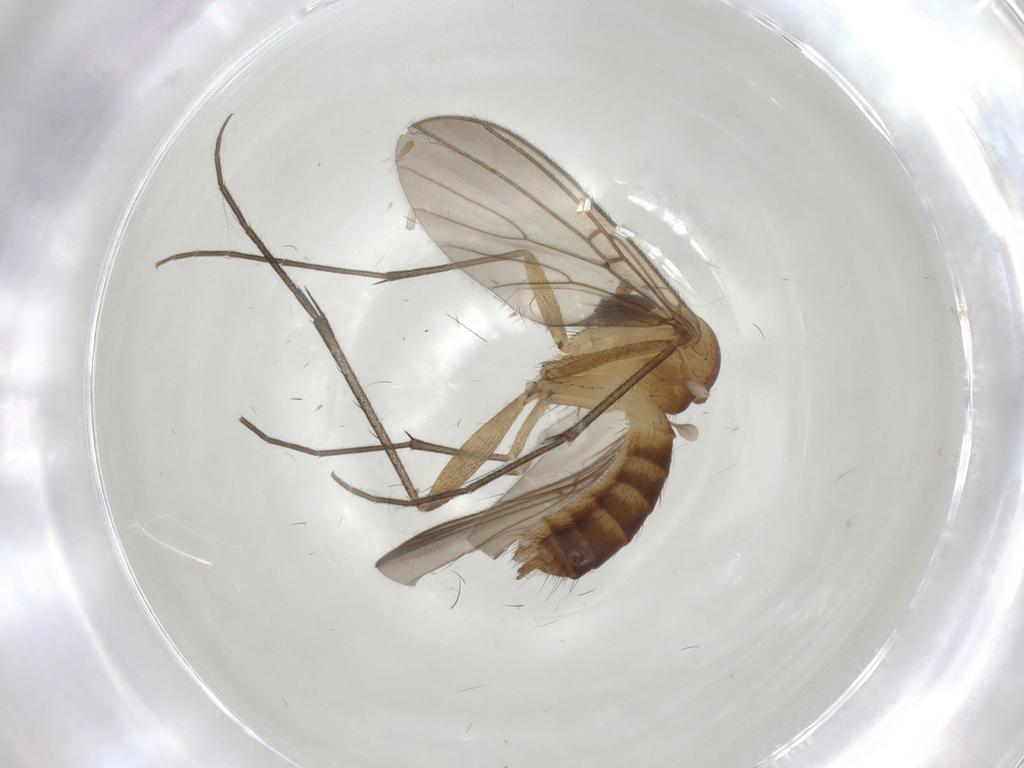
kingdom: Animalia
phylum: Arthropoda
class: Insecta
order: Diptera
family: Mycetophilidae
